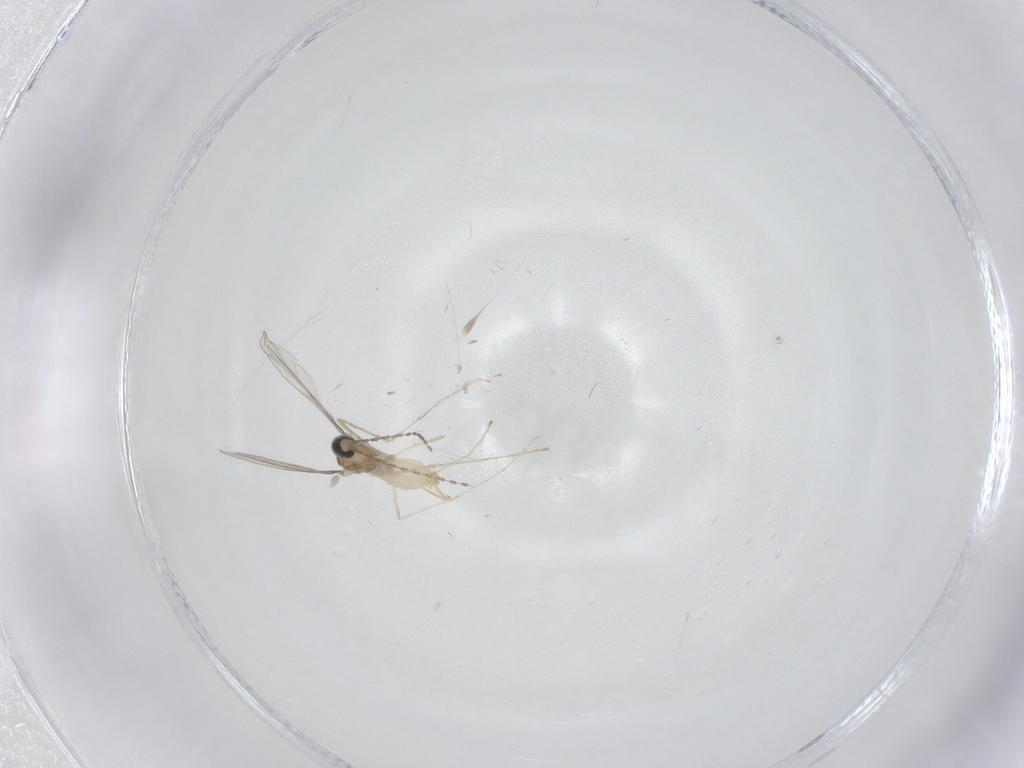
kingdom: Animalia
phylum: Arthropoda
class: Insecta
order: Diptera
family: Cecidomyiidae
